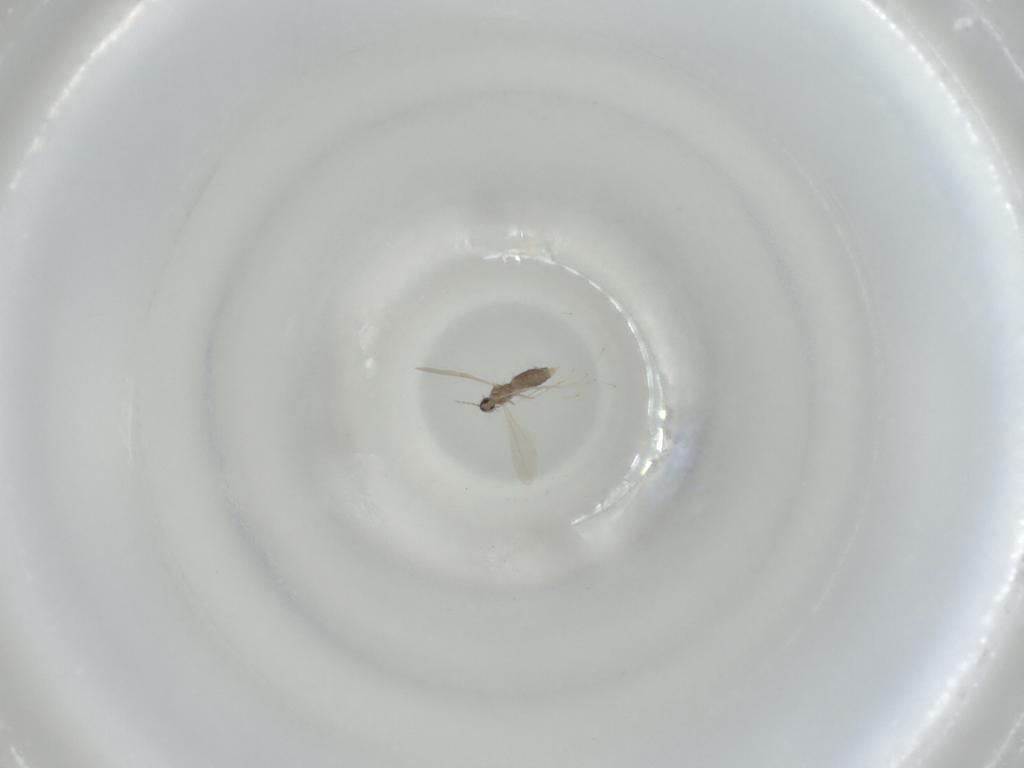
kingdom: Animalia
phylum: Arthropoda
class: Insecta
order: Diptera
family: Cecidomyiidae
